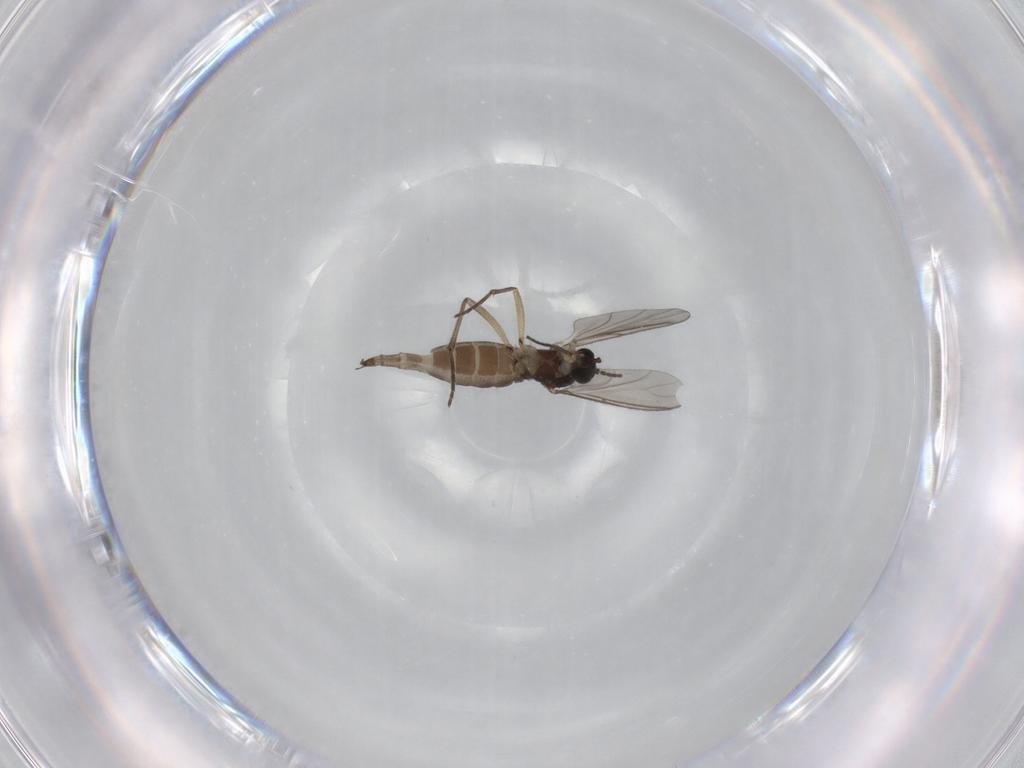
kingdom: Animalia
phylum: Arthropoda
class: Insecta
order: Diptera
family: Sciaridae
